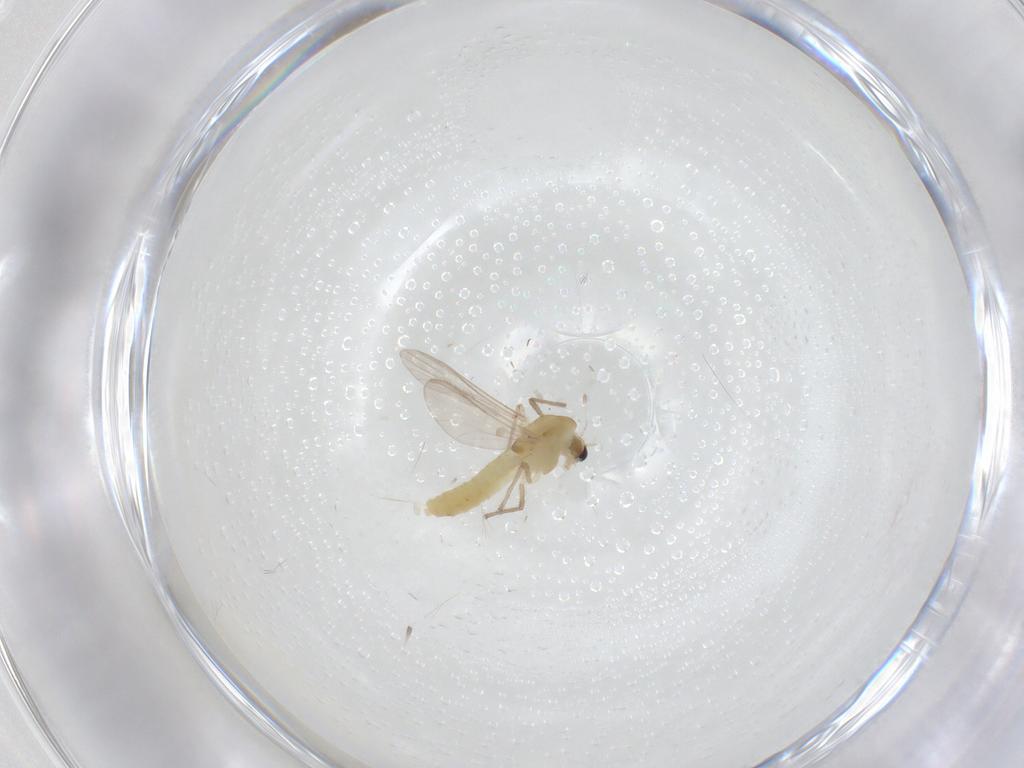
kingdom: Animalia
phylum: Arthropoda
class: Insecta
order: Diptera
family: Chironomidae
